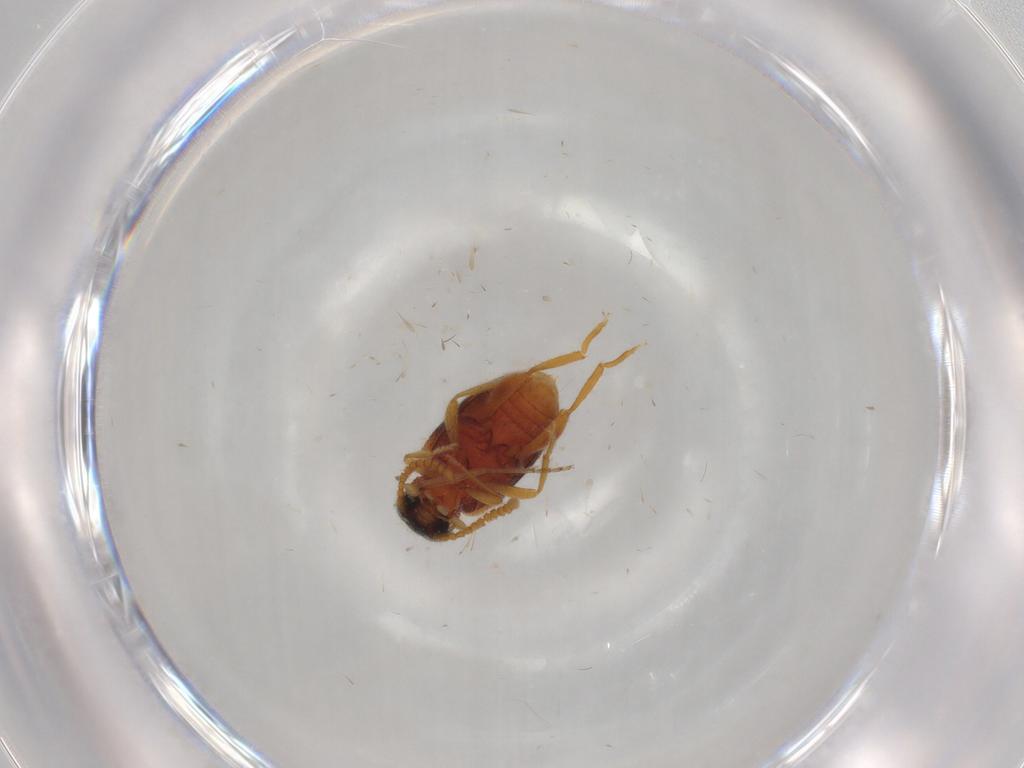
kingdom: Animalia
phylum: Arthropoda
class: Insecta
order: Coleoptera
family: Aderidae
